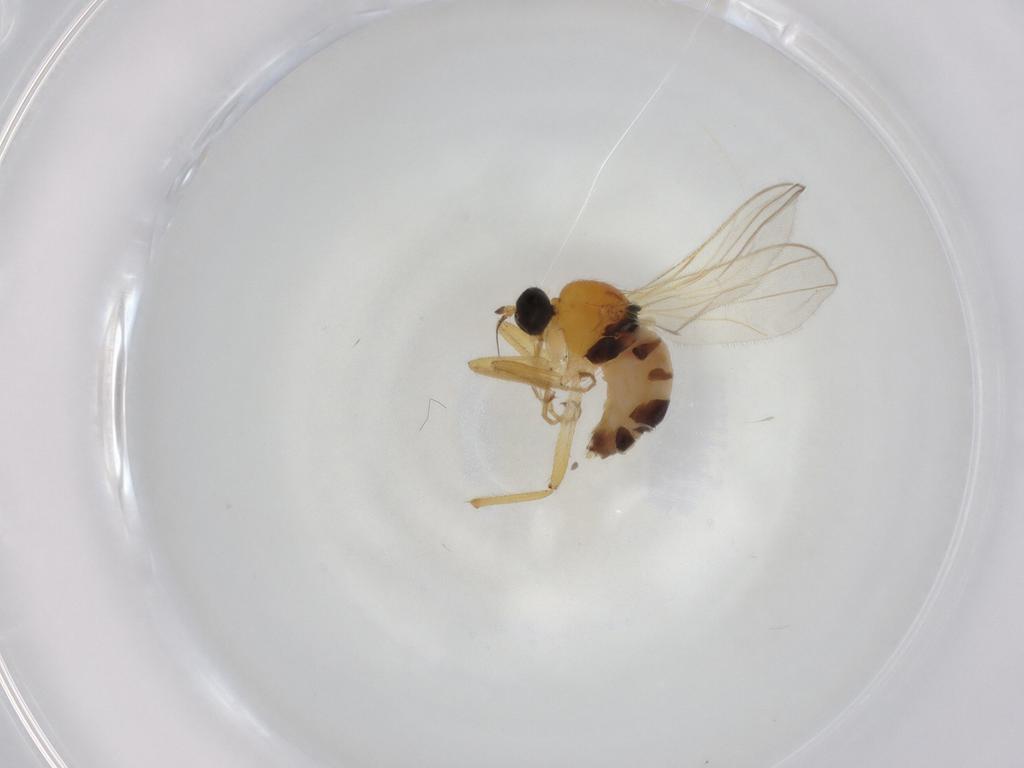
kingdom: Animalia
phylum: Arthropoda
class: Insecta
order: Diptera
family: Hybotidae
